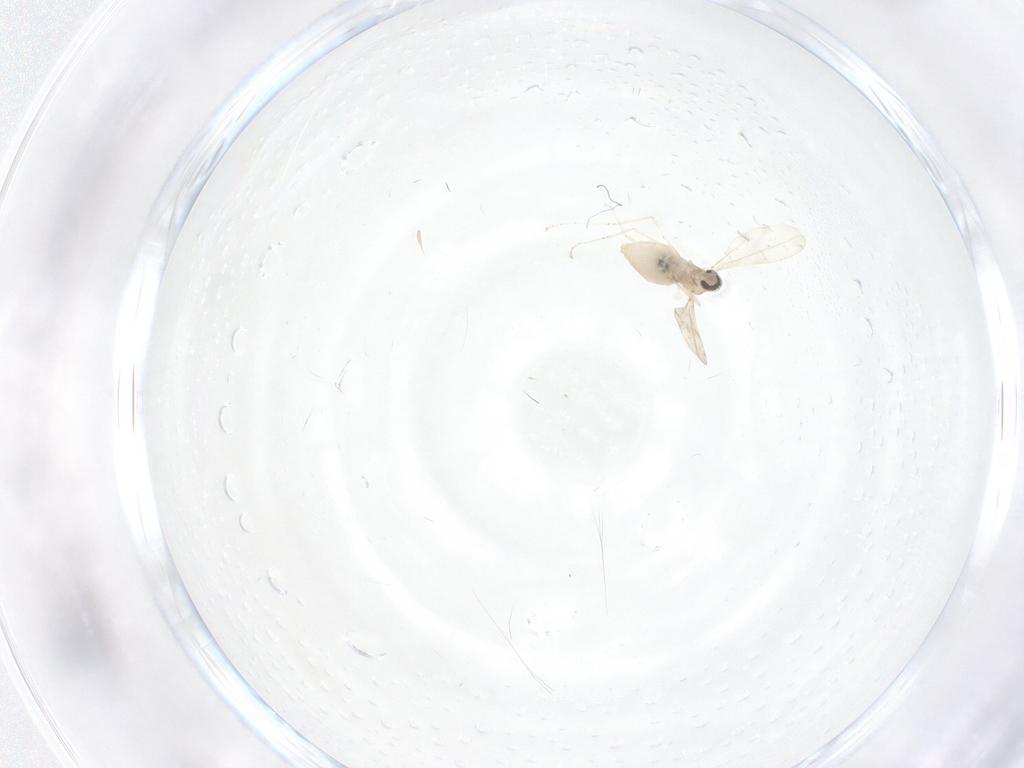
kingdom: Animalia
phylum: Arthropoda
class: Insecta
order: Diptera
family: Cecidomyiidae
